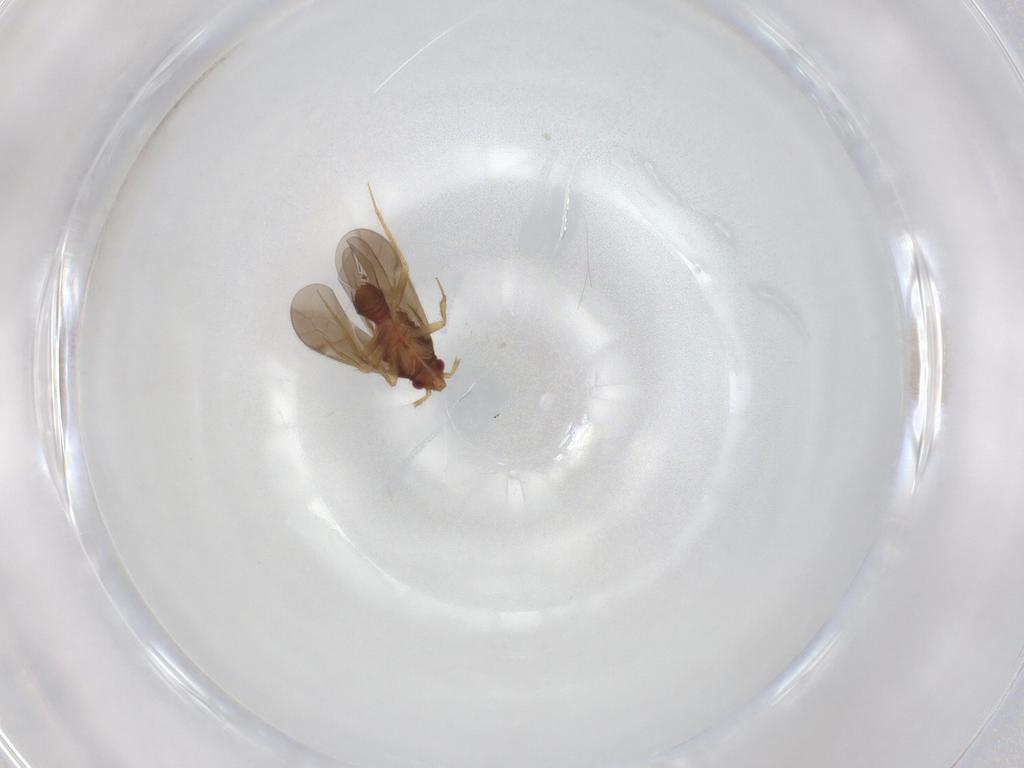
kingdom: Animalia
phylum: Arthropoda
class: Insecta
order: Hemiptera
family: Ceratocombidae
